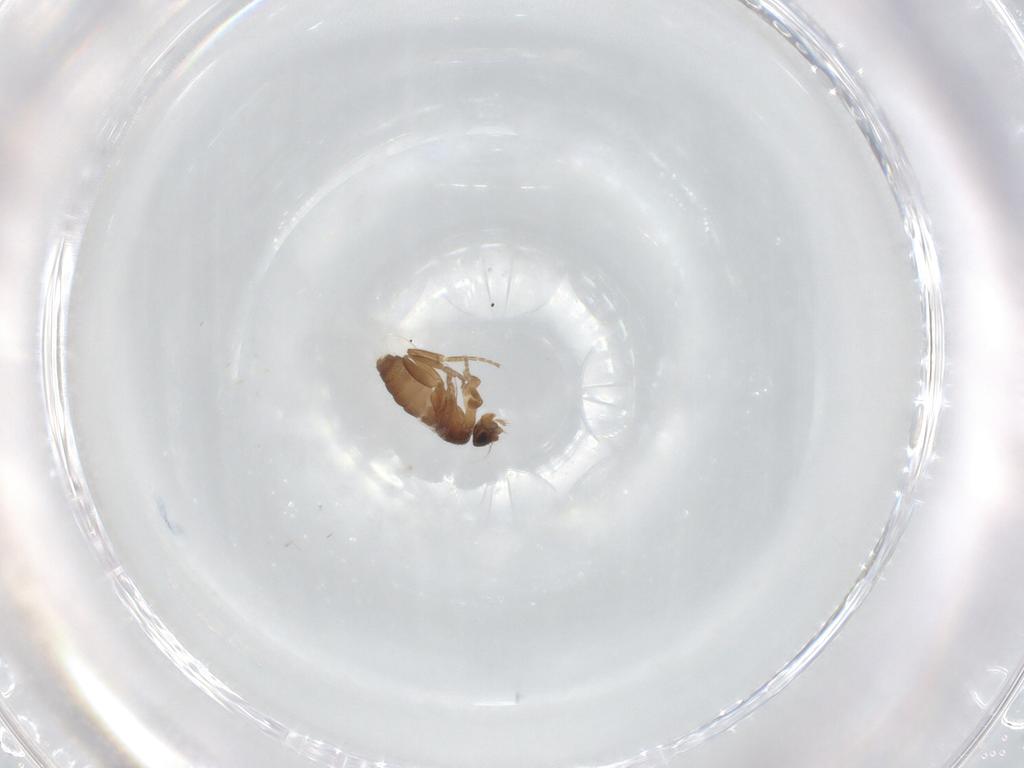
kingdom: Animalia
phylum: Arthropoda
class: Insecta
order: Diptera
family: Phoridae
